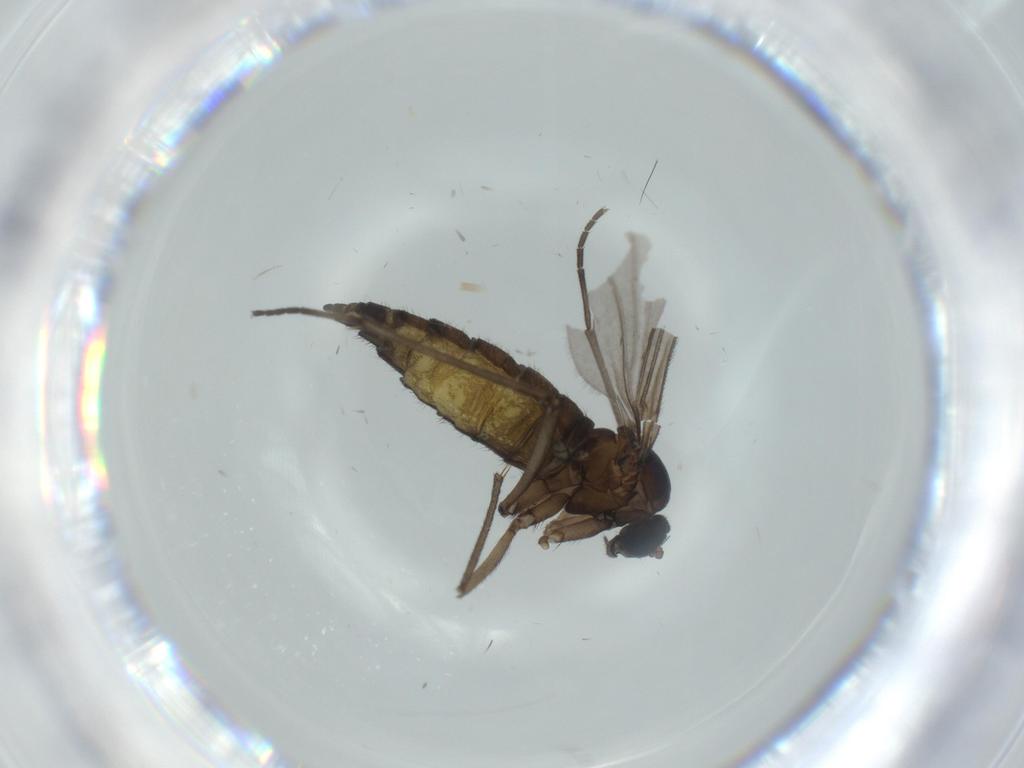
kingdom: Animalia
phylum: Arthropoda
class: Insecta
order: Diptera
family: Sciaridae
